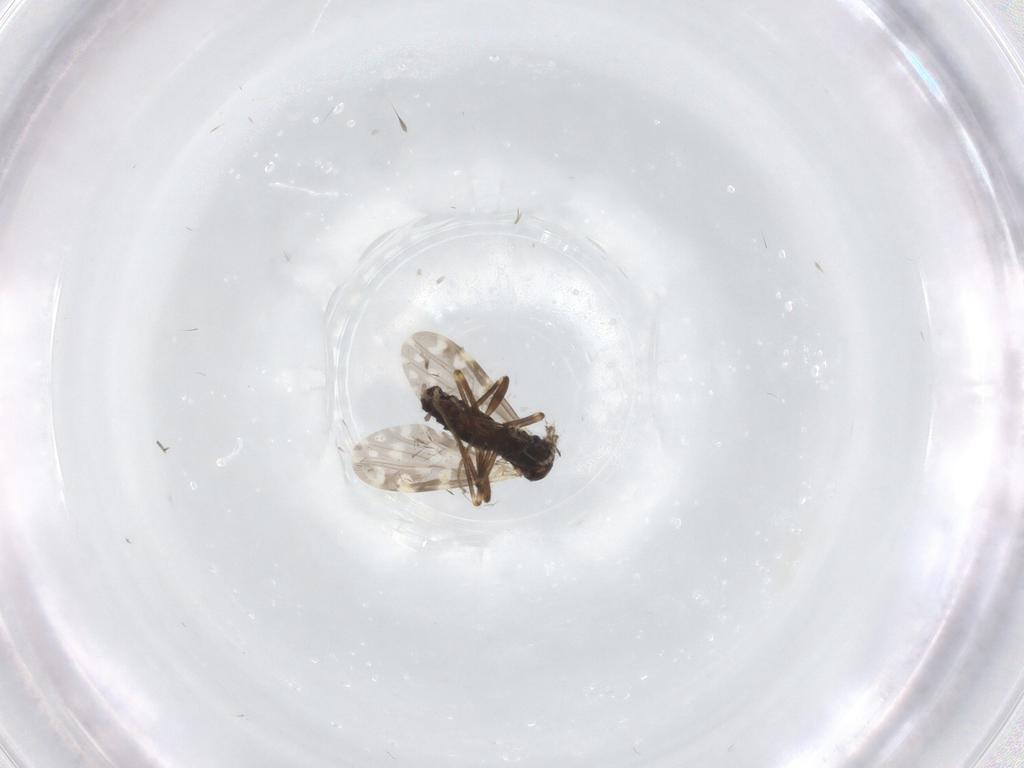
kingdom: Animalia
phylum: Arthropoda
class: Insecta
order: Diptera
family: Ceratopogonidae
